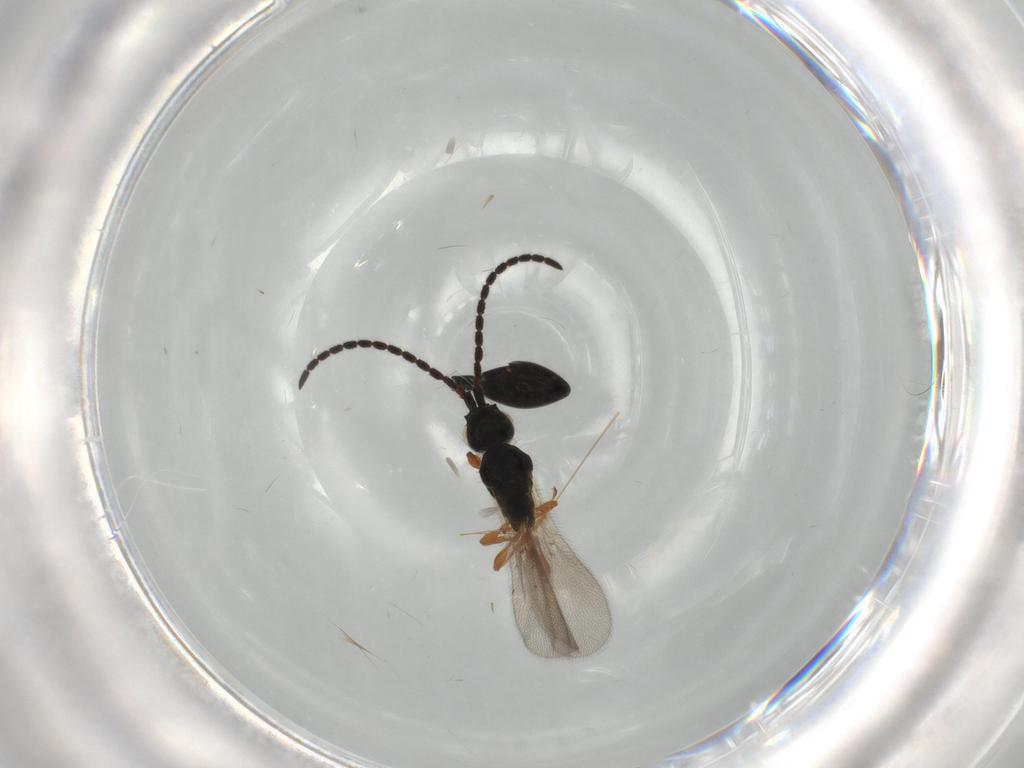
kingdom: Animalia
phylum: Arthropoda
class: Insecta
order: Hymenoptera
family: Diapriidae
